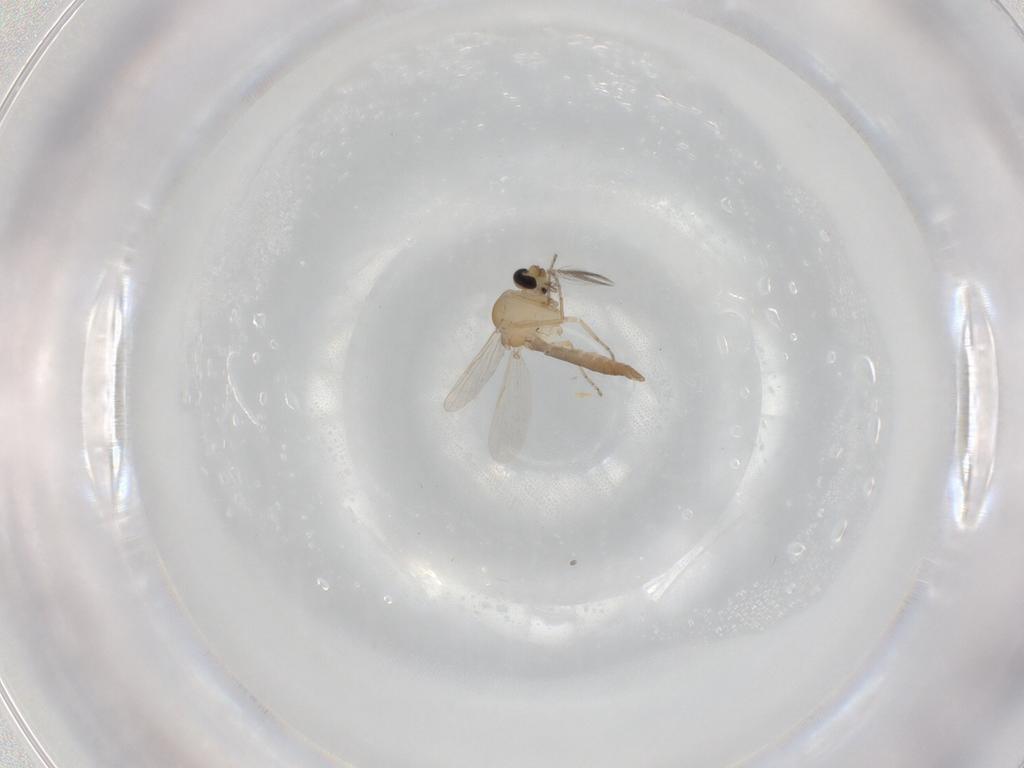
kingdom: Animalia
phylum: Arthropoda
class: Insecta
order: Diptera
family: Ceratopogonidae
